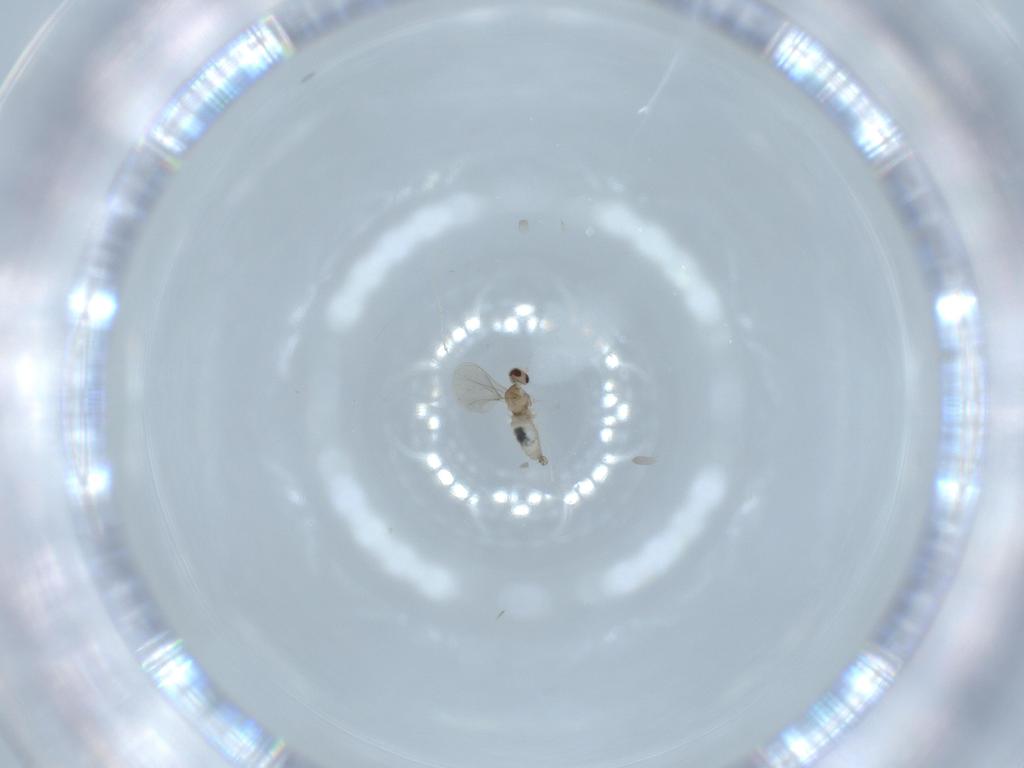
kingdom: Animalia
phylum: Arthropoda
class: Insecta
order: Diptera
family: Cecidomyiidae
